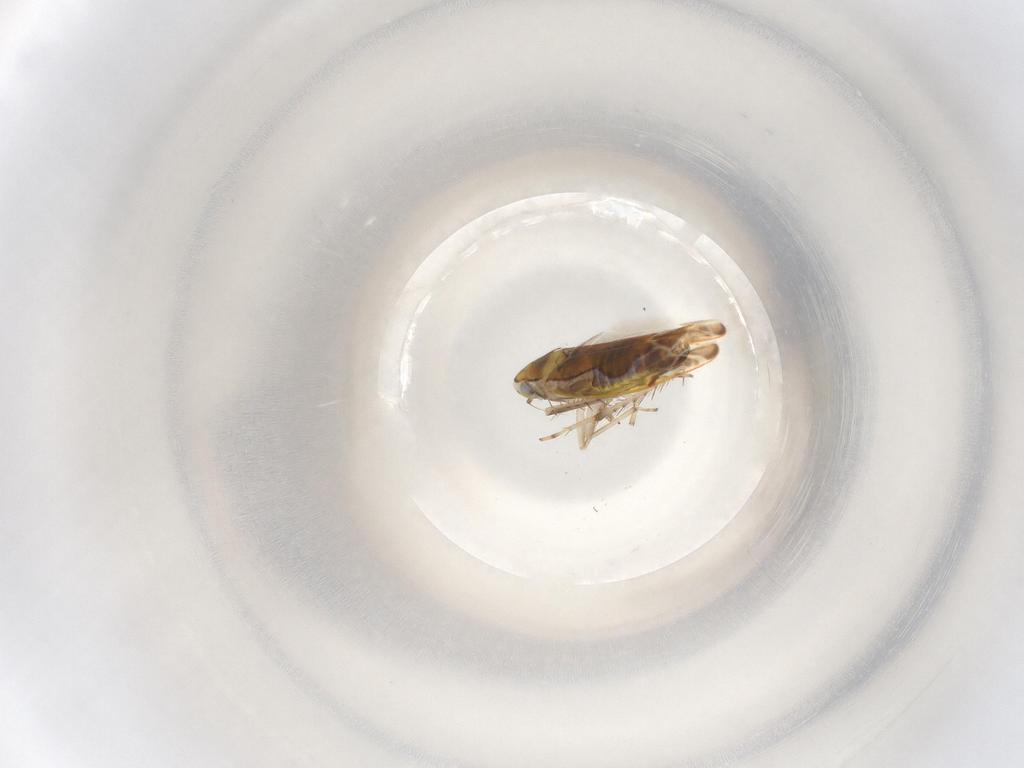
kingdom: Animalia
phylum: Arthropoda
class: Insecta
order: Hemiptera
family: Cicadellidae
